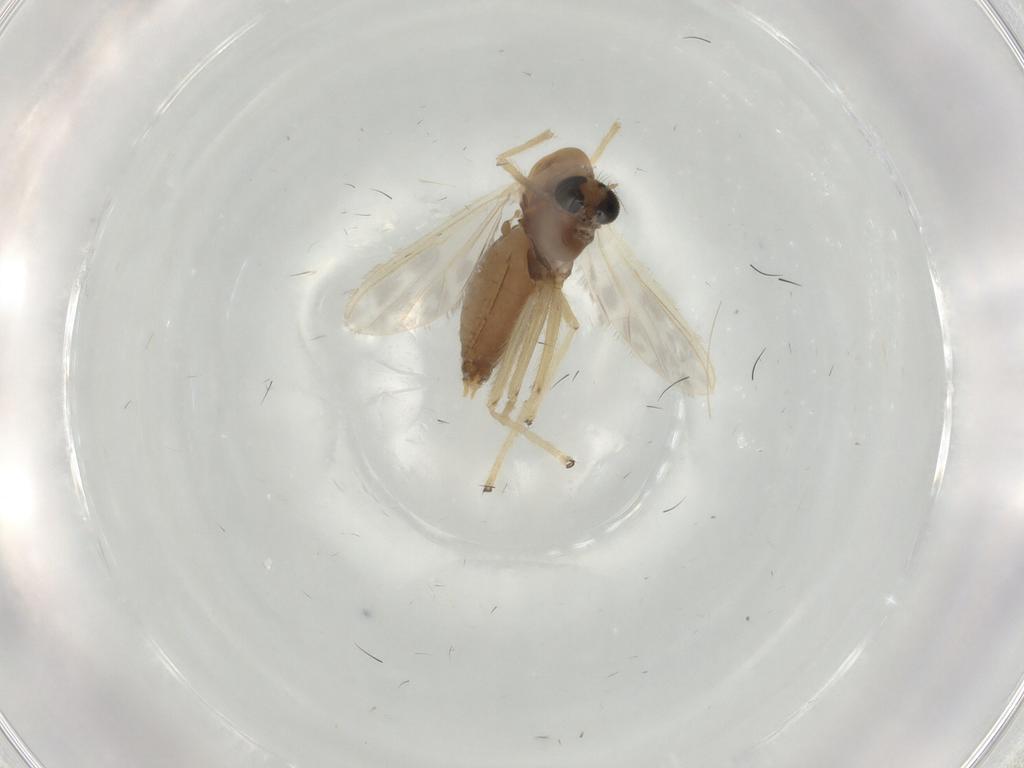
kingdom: Animalia
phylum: Arthropoda
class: Insecta
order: Diptera
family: Chironomidae
